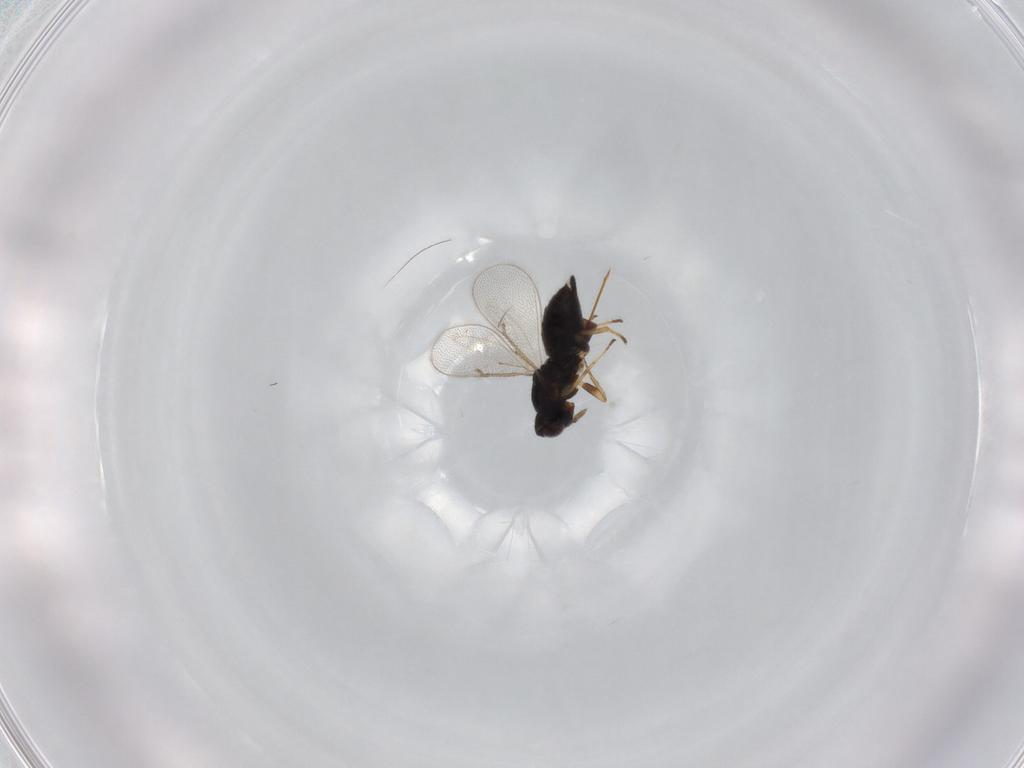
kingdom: Animalia
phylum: Arthropoda
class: Insecta
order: Hymenoptera
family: Eulophidae
